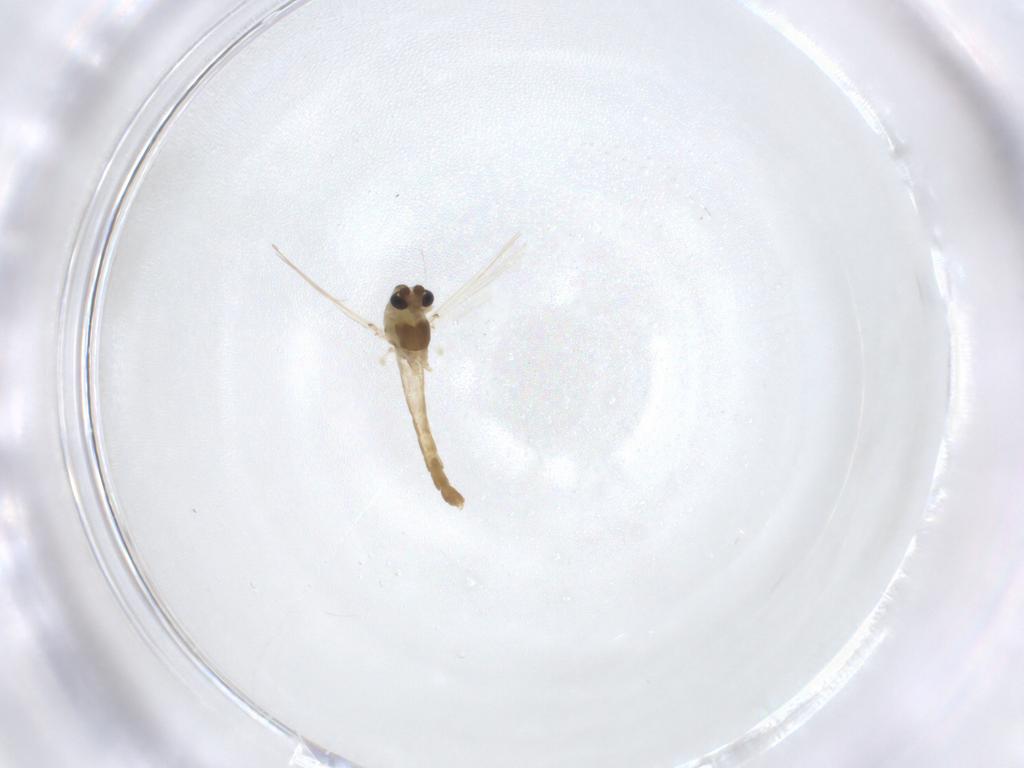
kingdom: Animalia
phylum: Arthropoda
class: Insecta
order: Diptera
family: Chironomidae
